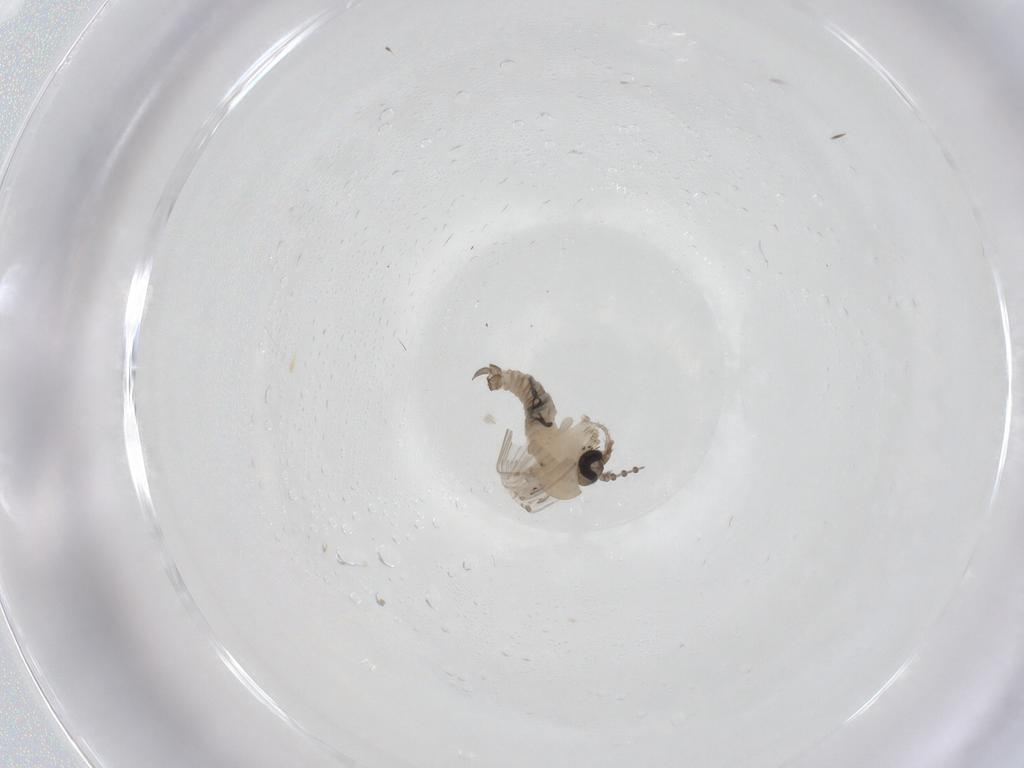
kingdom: Animalia
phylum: Arthropoda
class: Insecta
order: Diptera
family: Psychodidae
